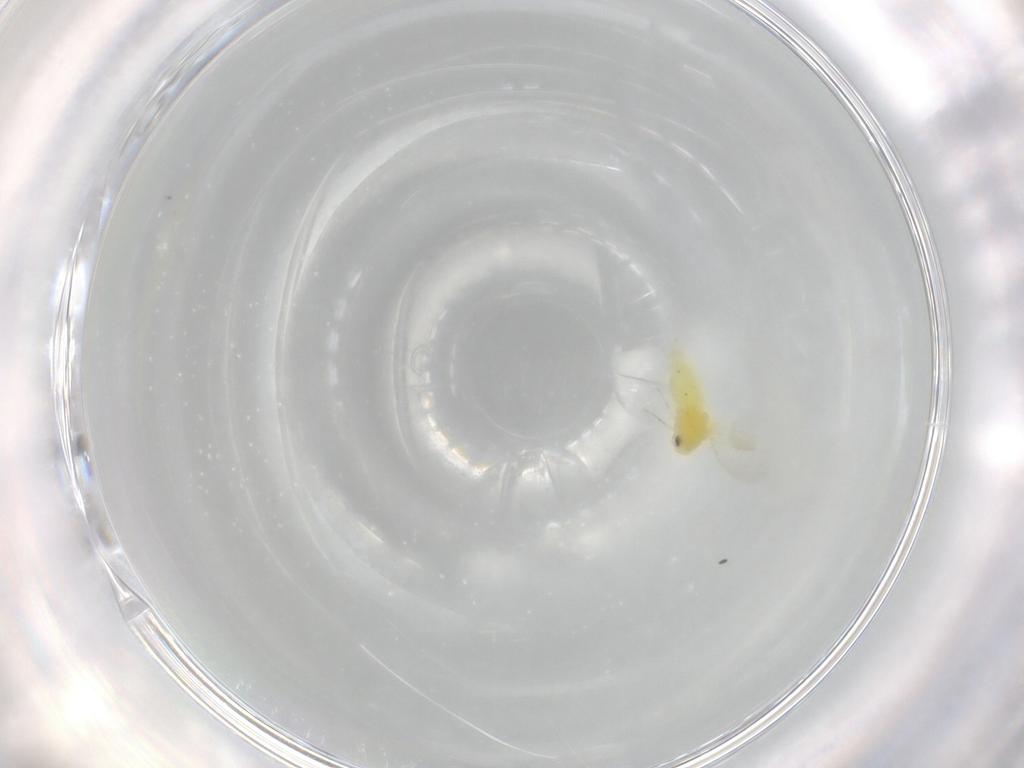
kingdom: Animalia
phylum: Arthropoda
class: Insecta
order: Hemiptera
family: Aleyrodidae
